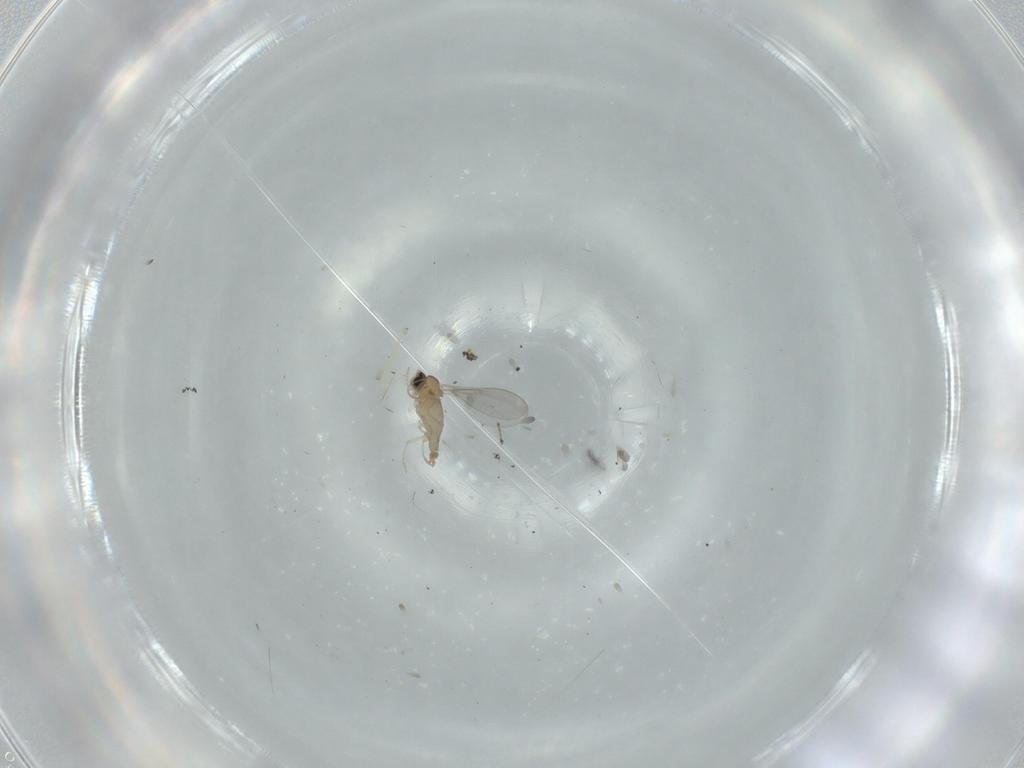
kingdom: Animalia
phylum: Arthropoda
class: Insecta
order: Diptera
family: Cecidomyiidae
